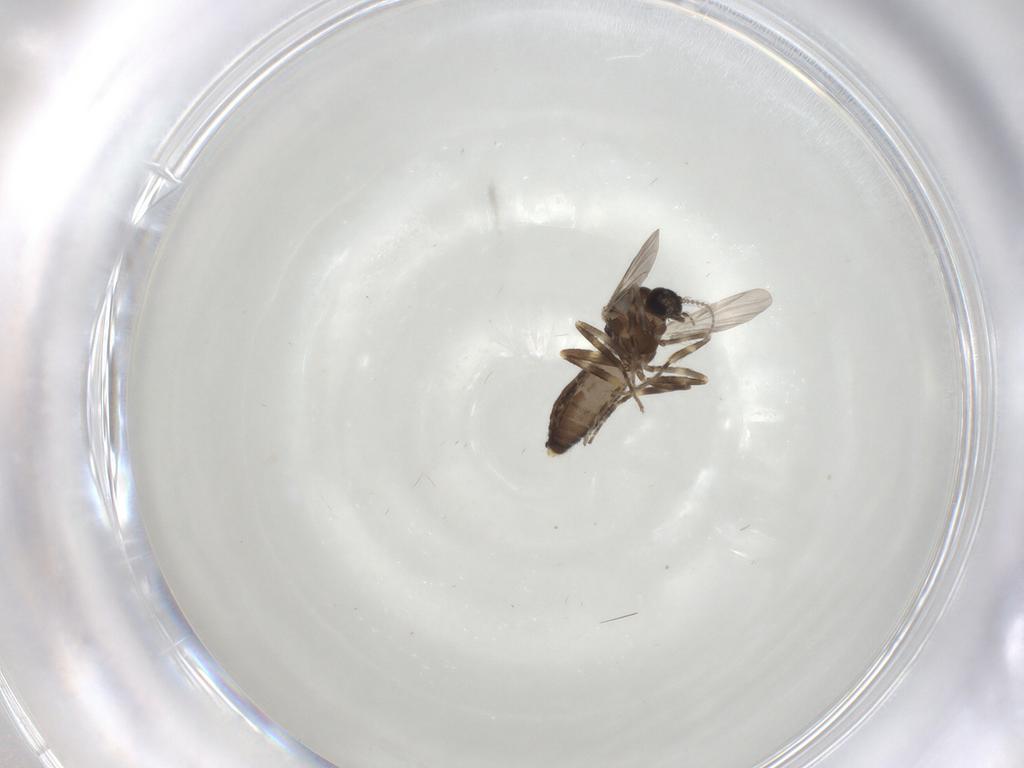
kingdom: Animalia
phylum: Arthropoda
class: Insecta
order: Diptera
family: Ceratopogonidae
